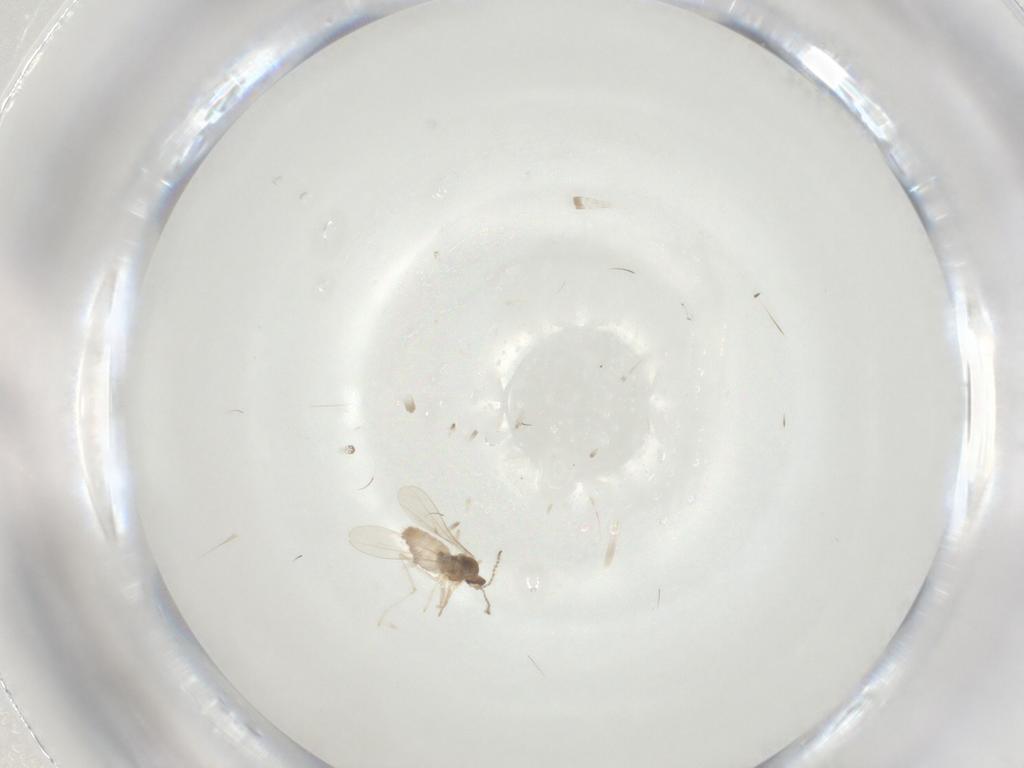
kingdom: Animalia
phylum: Arthropoda
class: Insecta
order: Diptera
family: Cecidomyiidae
